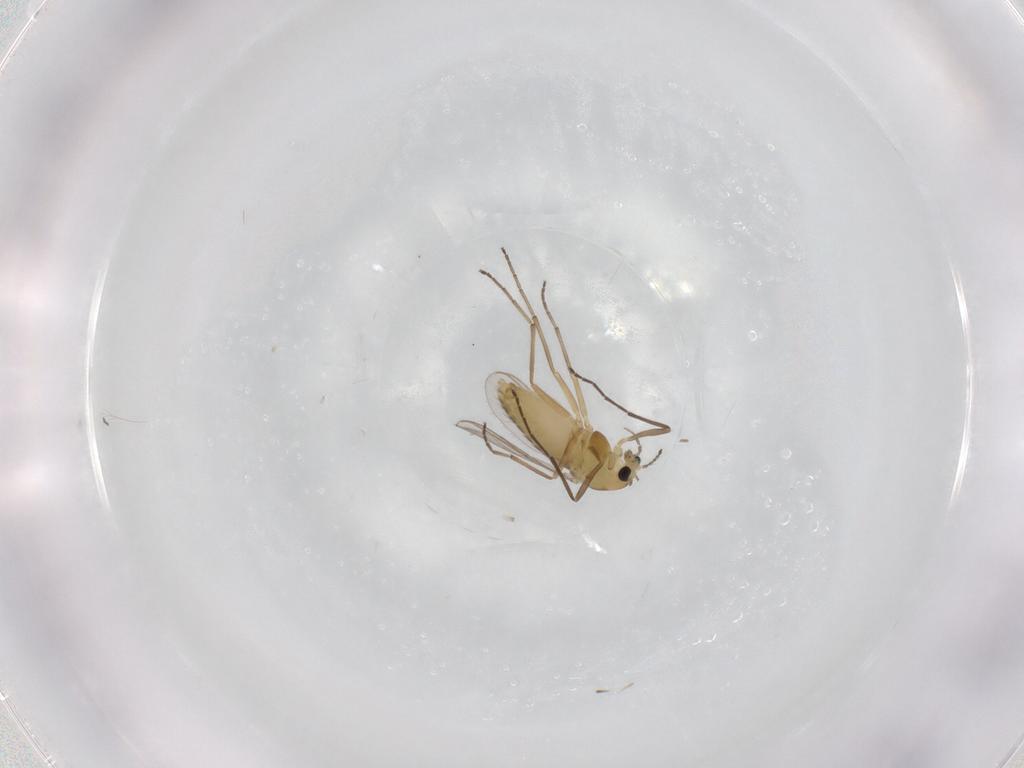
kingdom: Animalia
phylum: Arthropoda
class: Insecta
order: Diptera
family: Chironomidae
